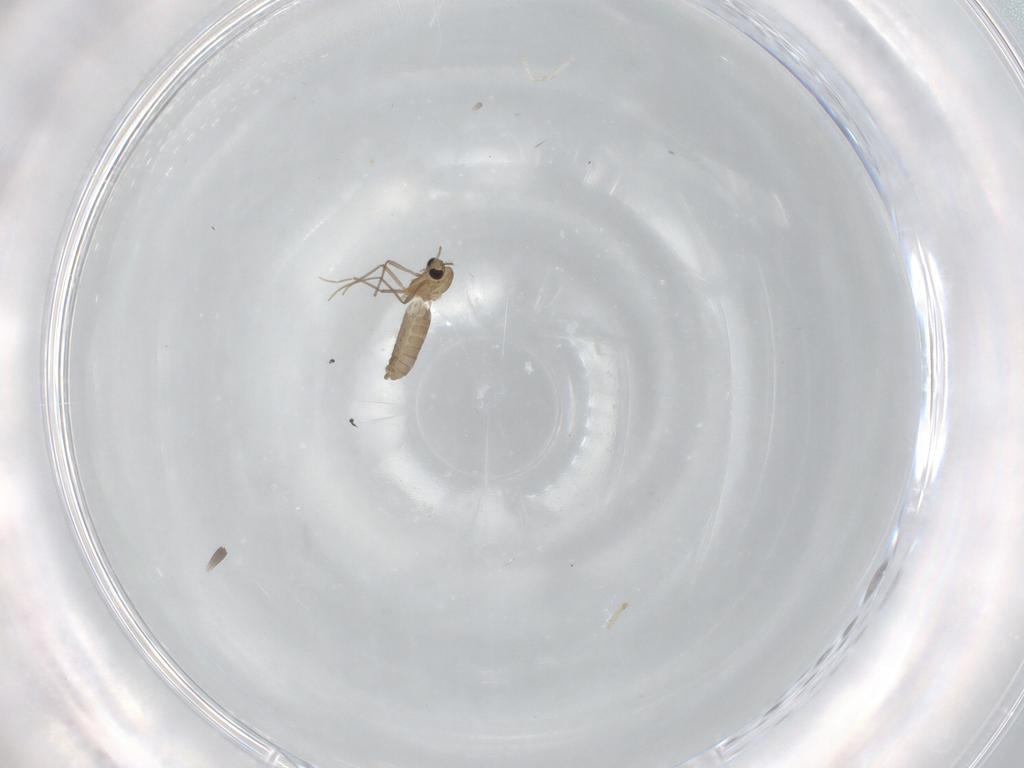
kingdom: Animalia
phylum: Arthropoda
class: Insecta
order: Diptera
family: Chironomidae
